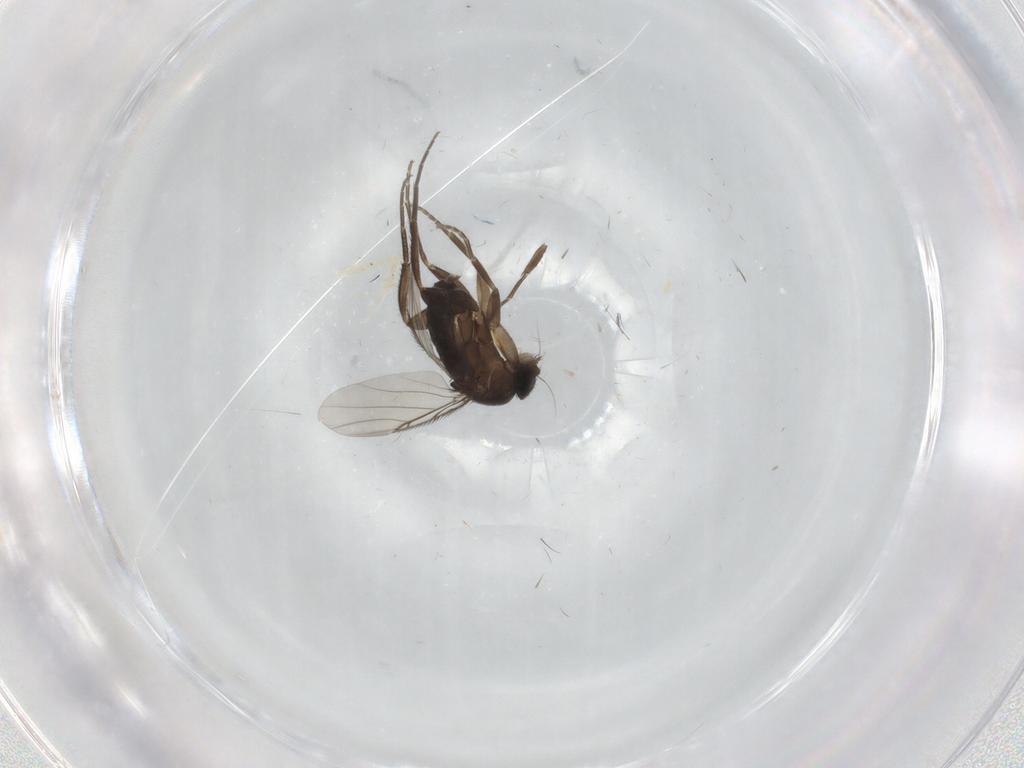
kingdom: Animalia
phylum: Arthropoda
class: Insecta
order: Diptera
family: Phoridae
